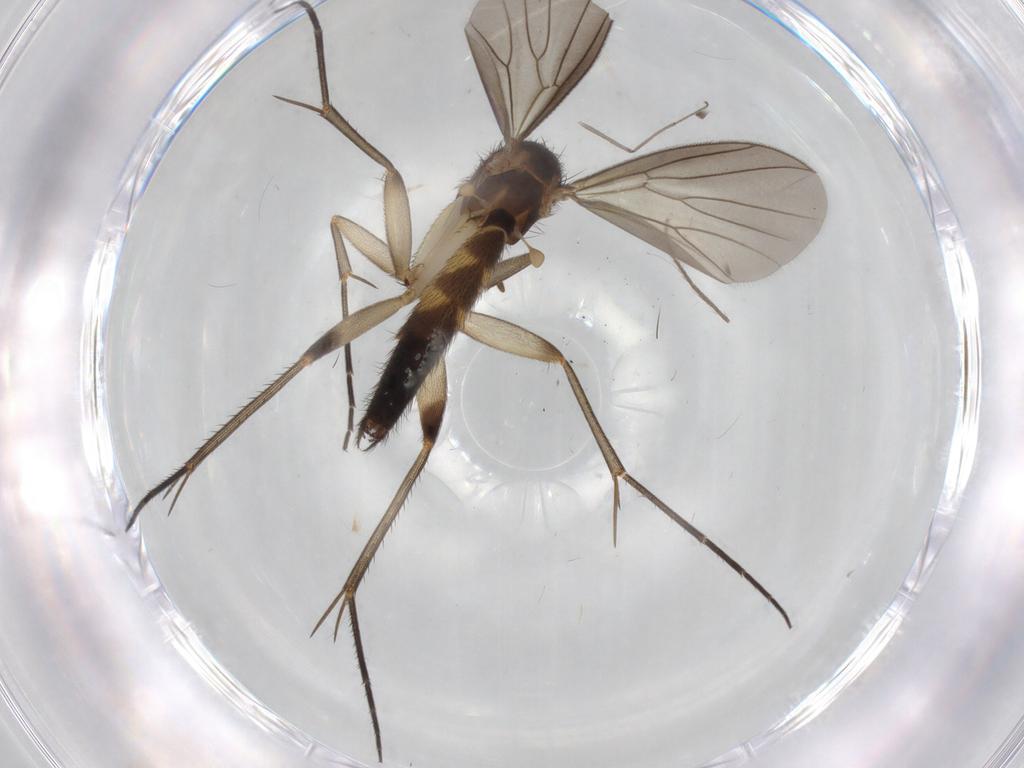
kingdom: Animalia
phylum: Arthropoda
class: Insecta
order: Diptera
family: Mycetophilidae
